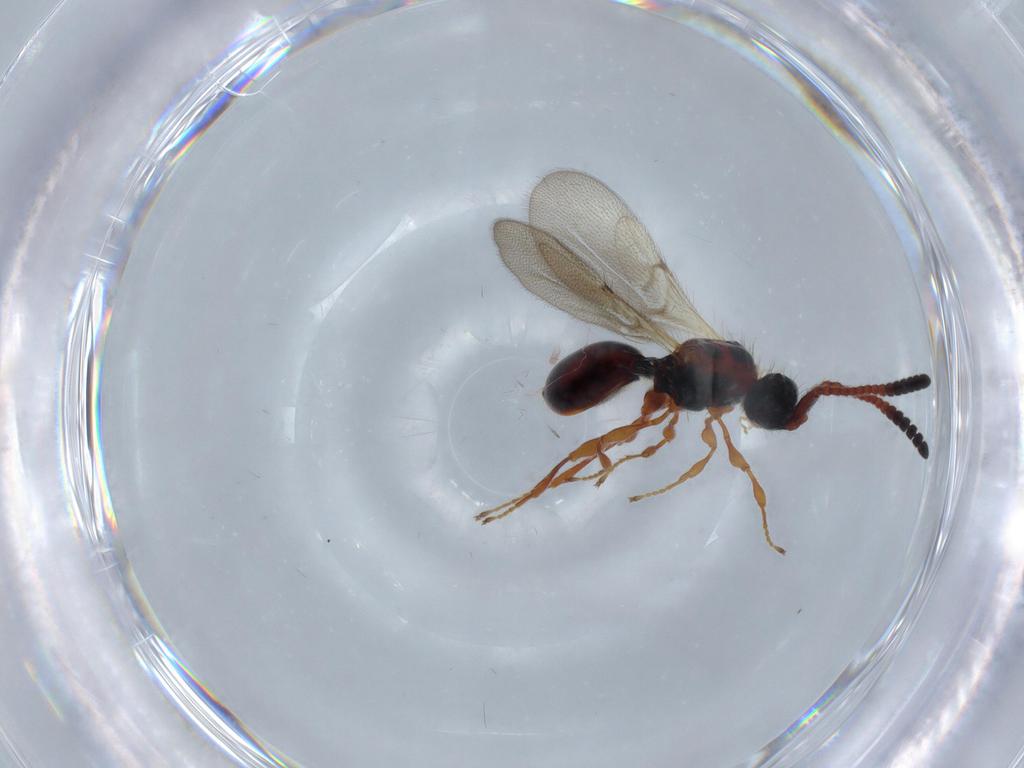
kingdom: Animalia
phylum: Arthropoda
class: Insecta
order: Hymenoptera
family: Diapriidae
